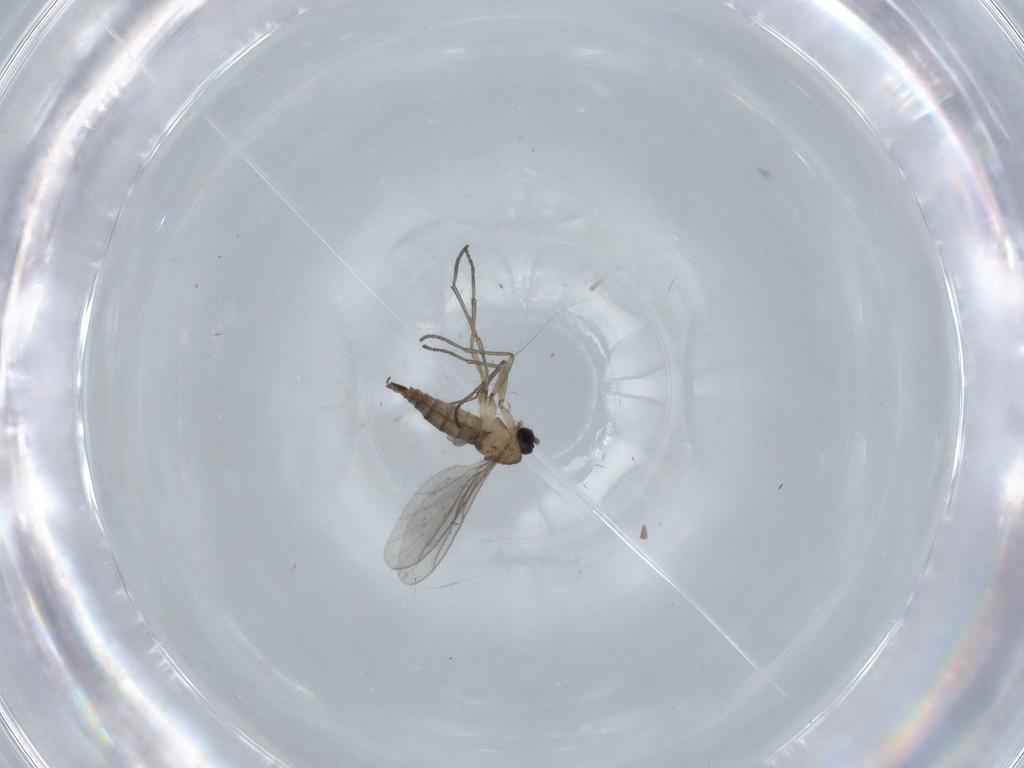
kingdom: Animalia
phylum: Arthropoda
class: Insecta
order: Diptera
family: Sciaridae
